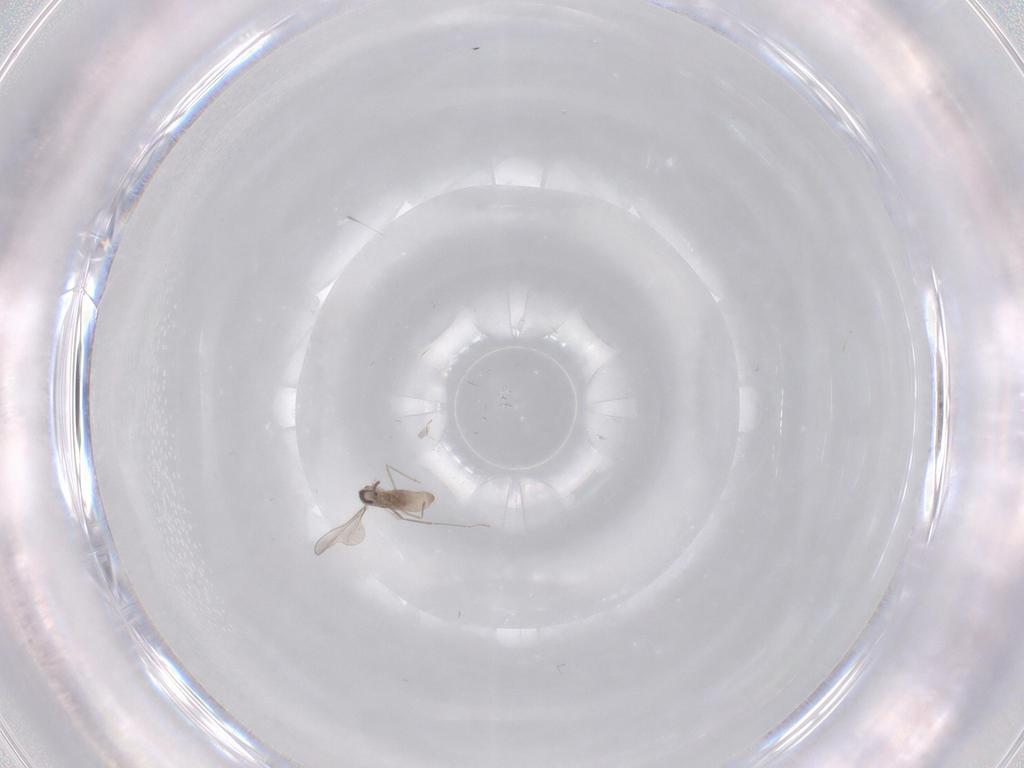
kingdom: Animalia
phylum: Arthropoda
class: Insecta
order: Diptera
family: Cecidomyiidae
